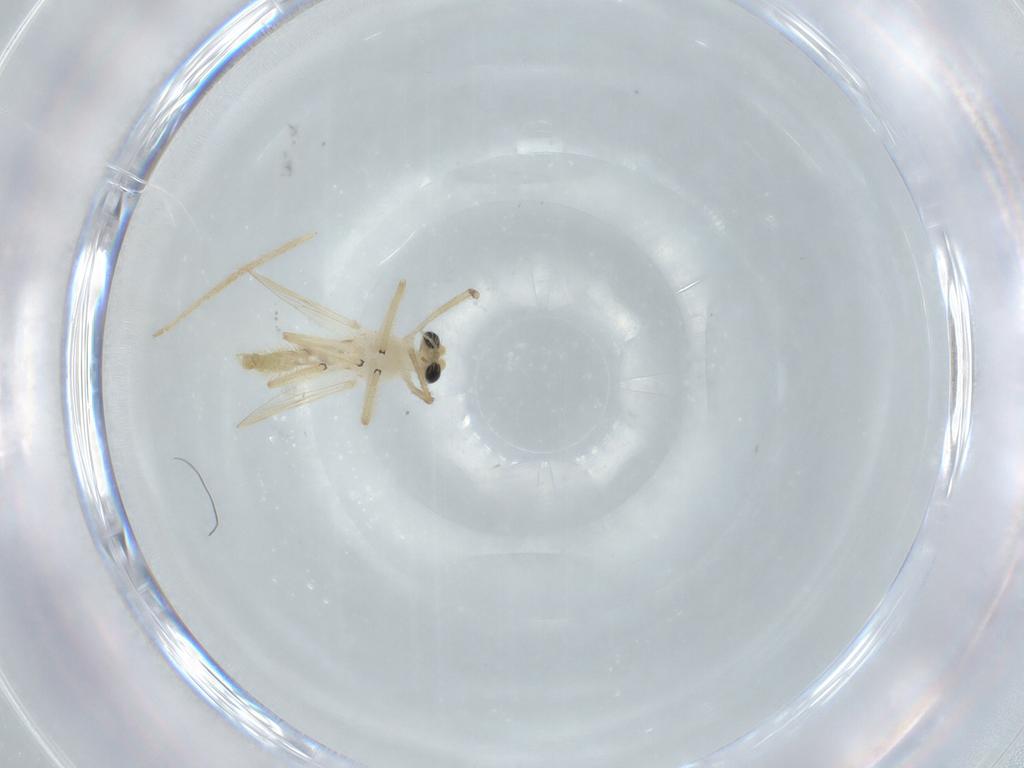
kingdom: Animalia
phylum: Arthropoda
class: Insecta
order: Diptera
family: Chironomidae
